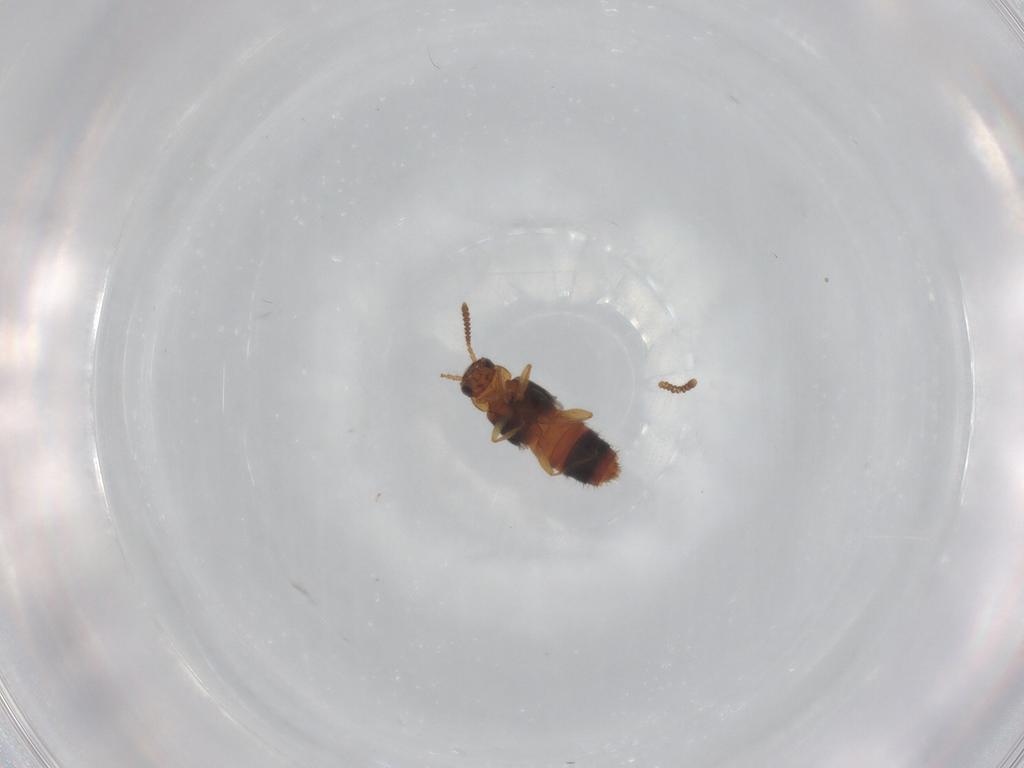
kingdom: Animalia
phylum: Arthropoda
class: Insecta
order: Coleoptera
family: Staphylinidae
